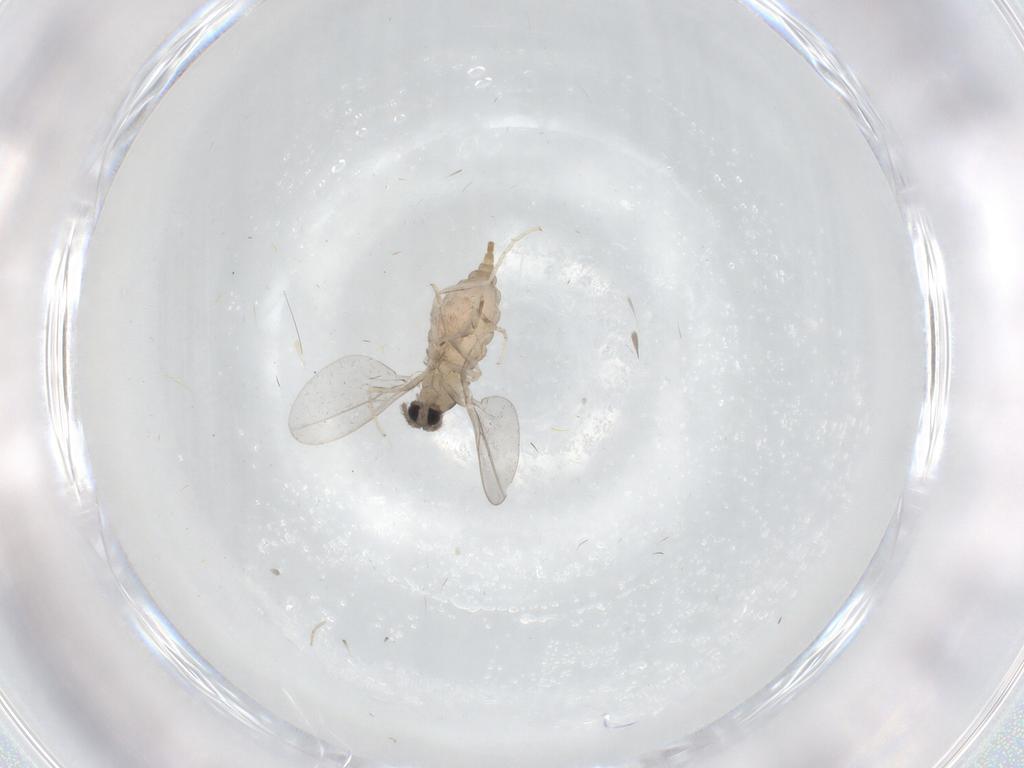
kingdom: Animalia
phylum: Arthropoda
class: Insecta
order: Diptera
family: Cecidomyiidae
